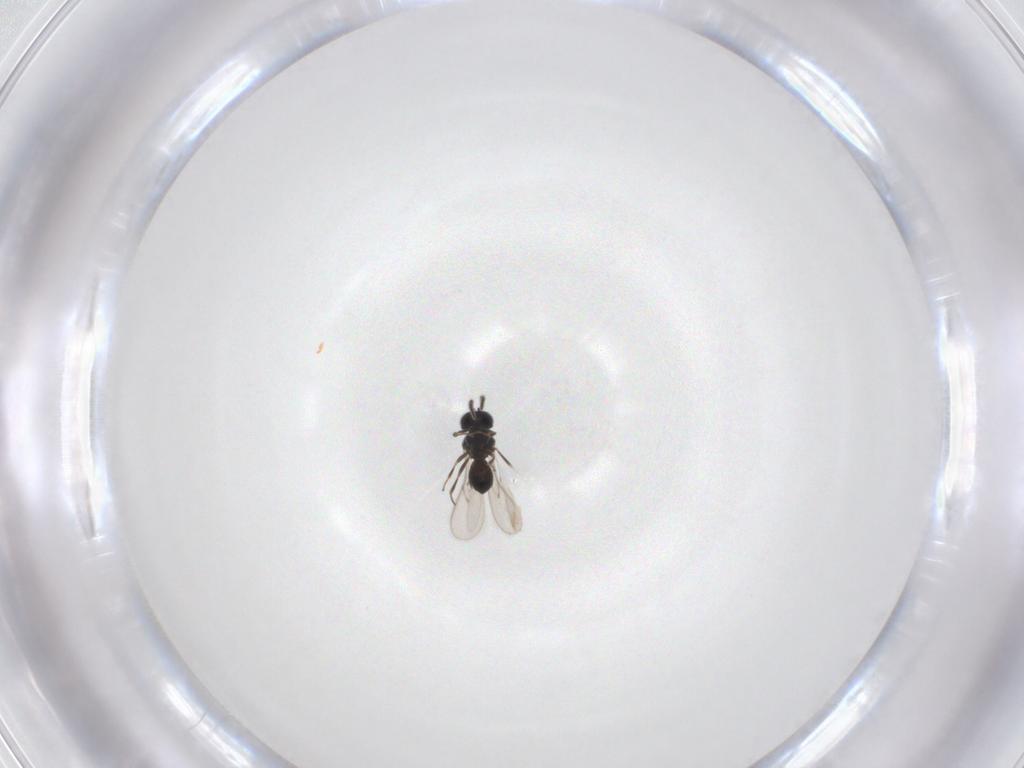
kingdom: Animalia
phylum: Arthropoda
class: Insecta
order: Hymenoptera
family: Scelionidae
